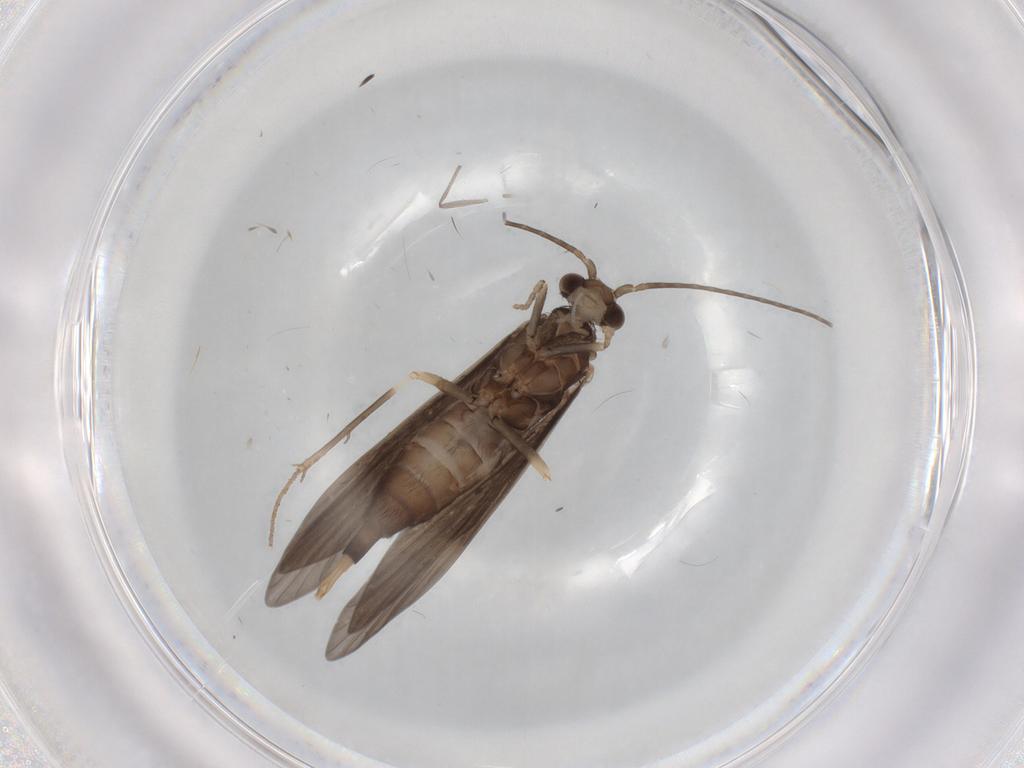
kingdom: Animalia
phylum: Arthropoda
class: Insecta
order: Trichoptera
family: Xiphocentronidae
